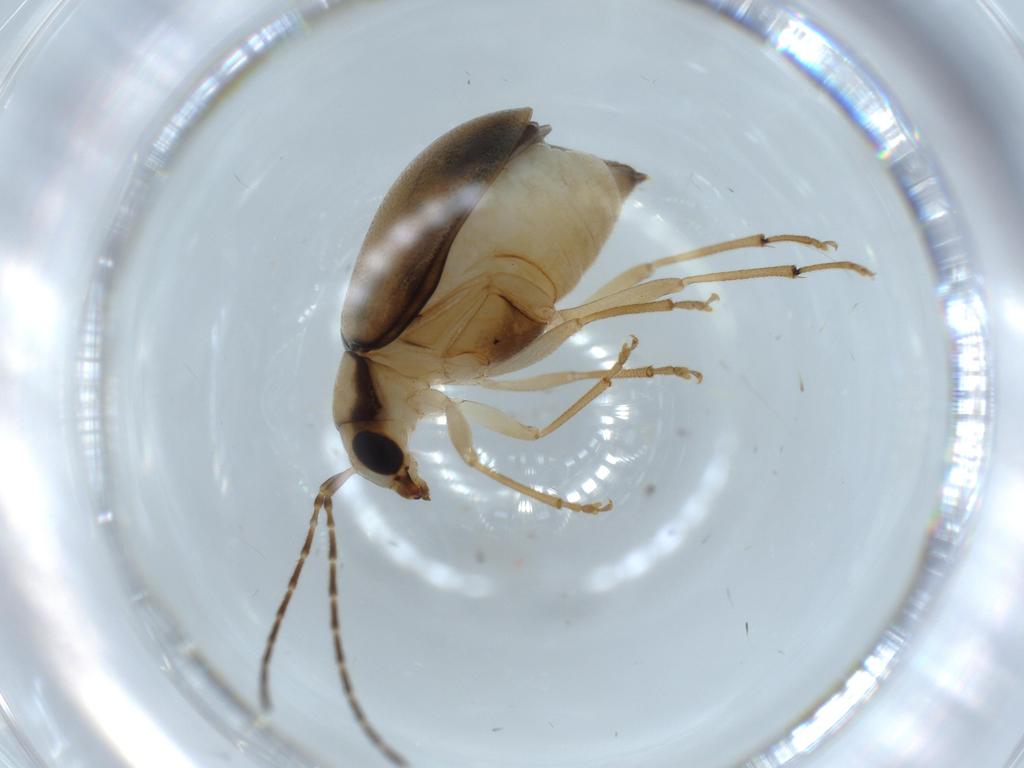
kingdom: Animalia
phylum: Arthropoda
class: Insecta
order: Coleoptera
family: Chrysomelidae
